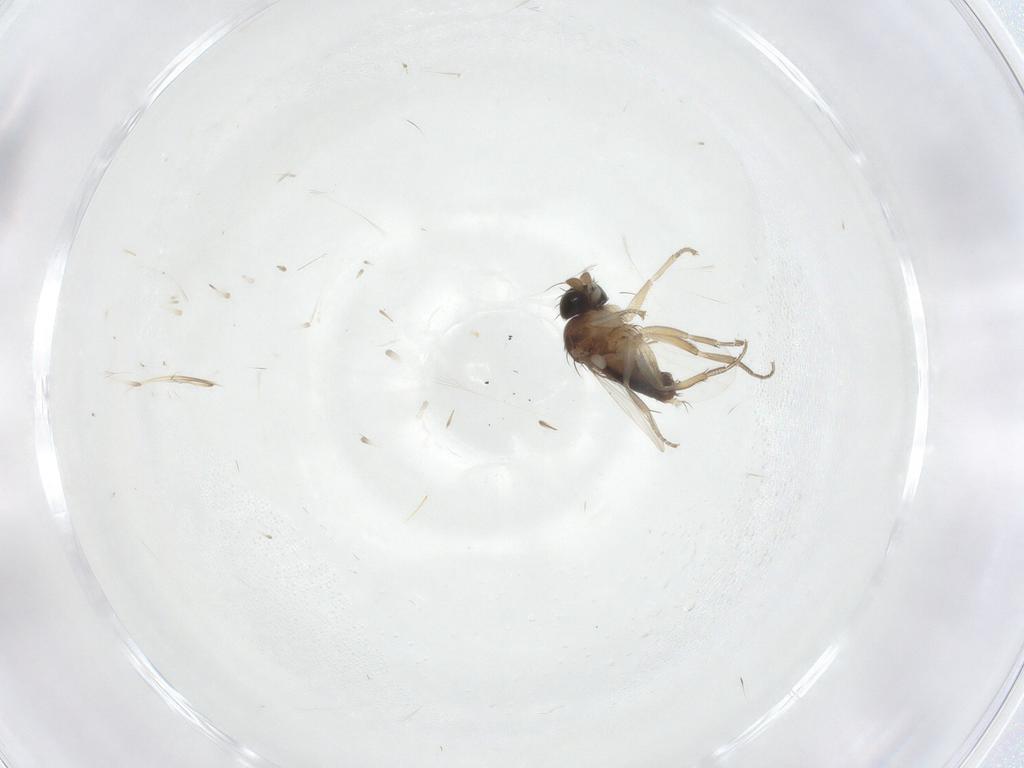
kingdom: Animalia
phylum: Arthropoda
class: Insecta
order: Diptera
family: Phoridae
